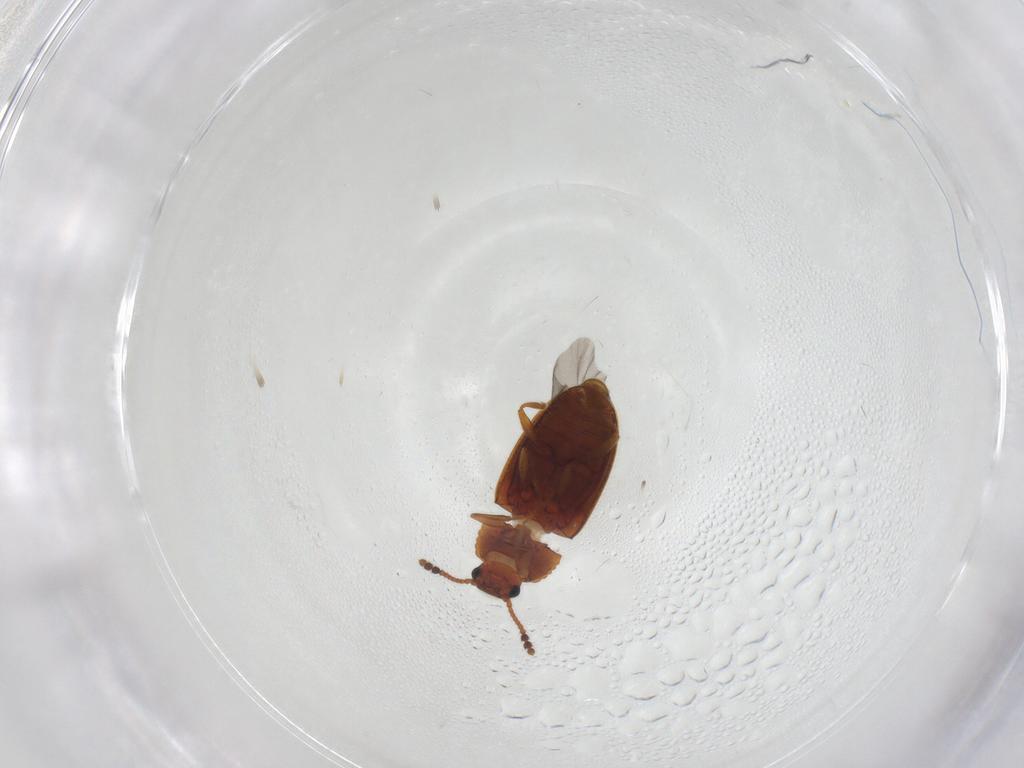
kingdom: Animalia
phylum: Arthropoda
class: Insecta
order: Coleoptera
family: Erotylidae
